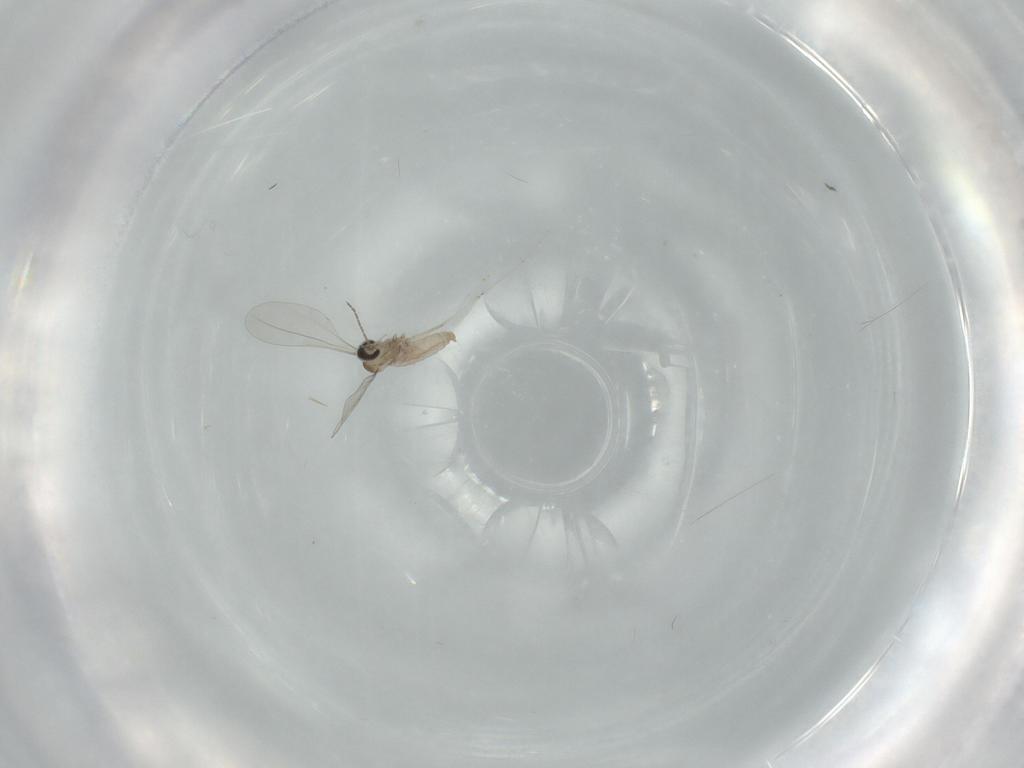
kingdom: Animalia
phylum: Arthropoda
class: Insecta
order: Diptera
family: Cecidomyiidae
